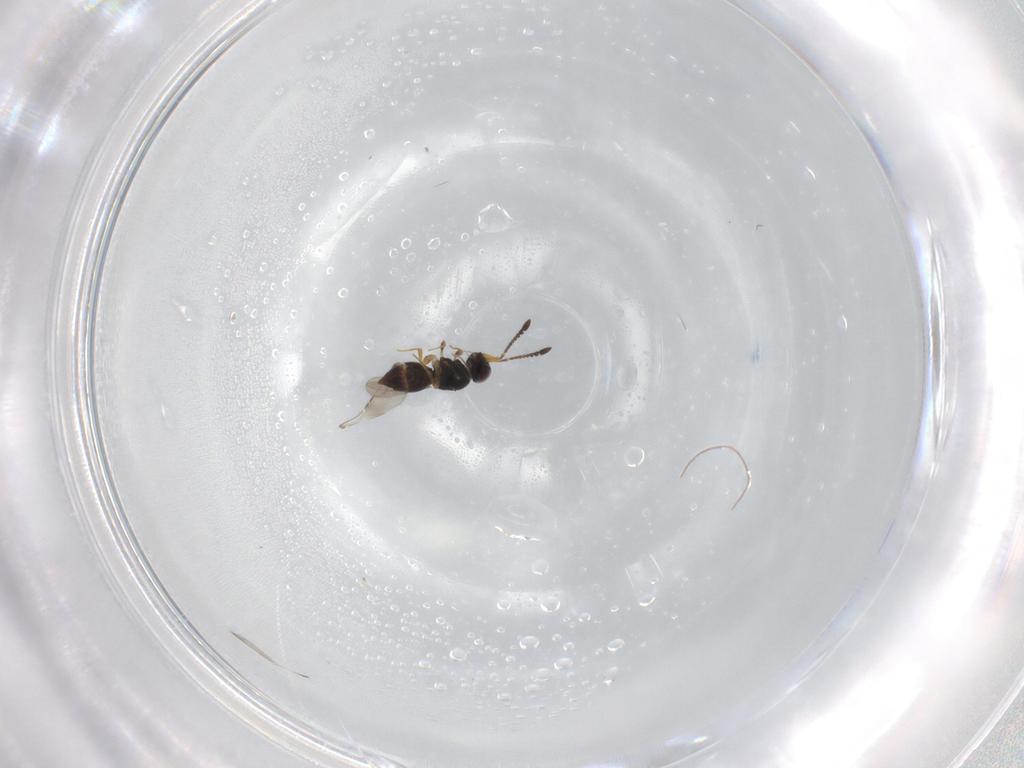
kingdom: Animalia
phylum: Arthropoda
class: Insecta
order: Hymenoptera
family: Ceraphronidae
